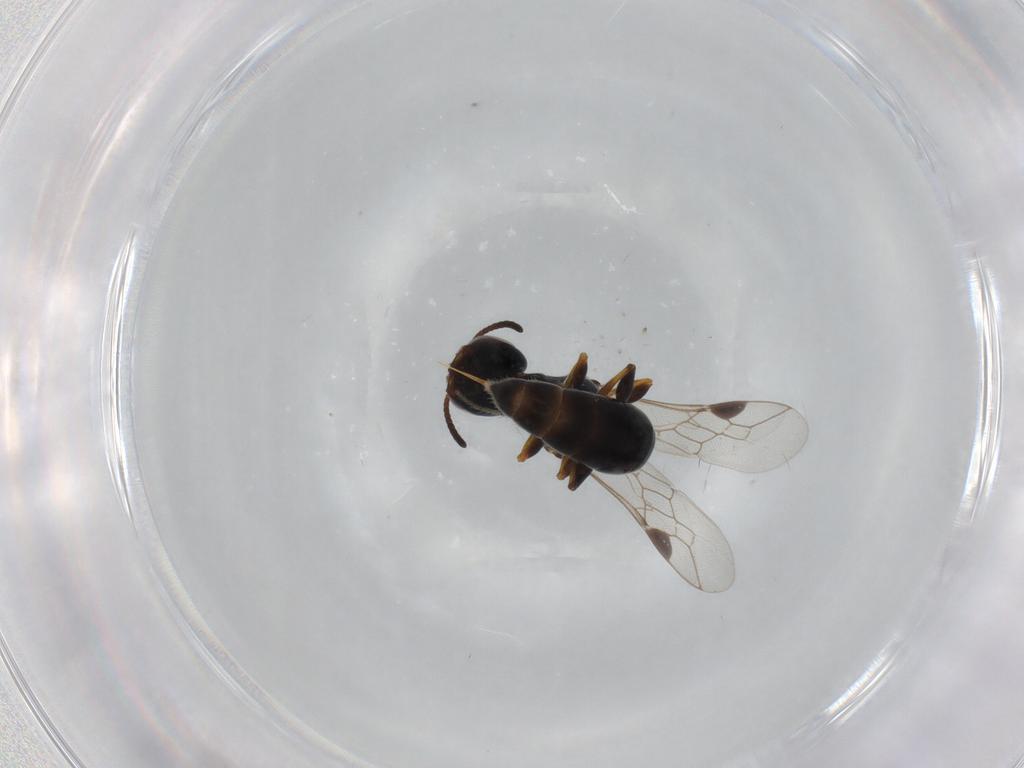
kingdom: Animalia
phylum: Arthropoda
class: Insecta
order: Hymenoptera
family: Pemphredonidae
